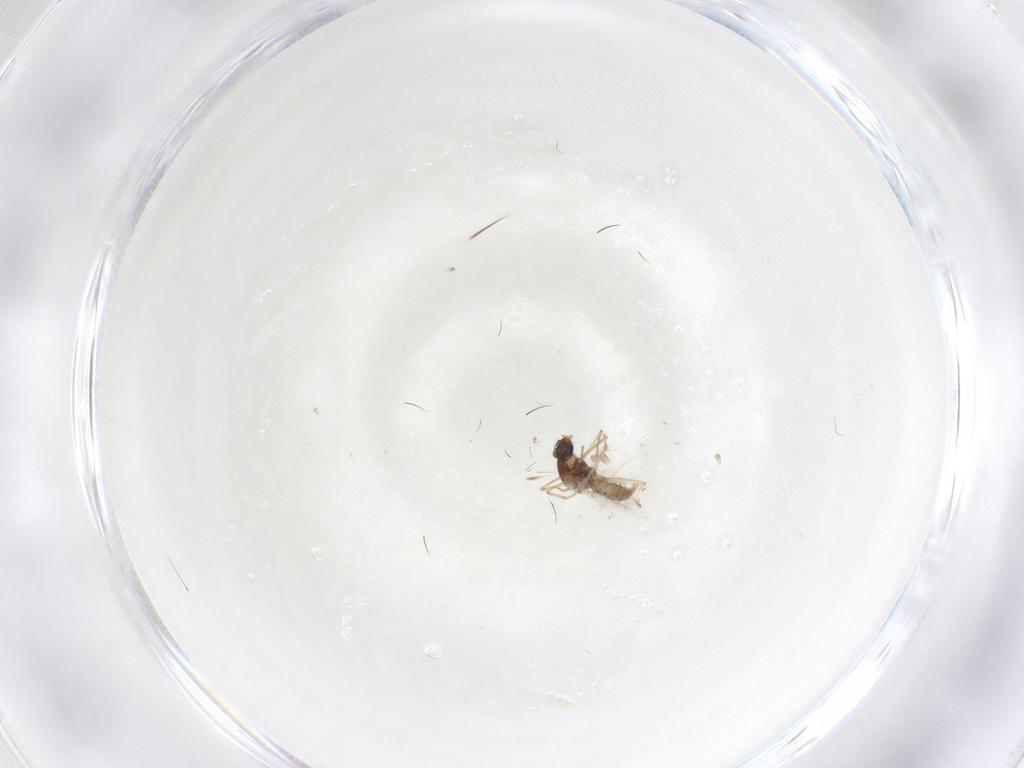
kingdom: Animalia
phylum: Arthropoda
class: Insecta
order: Diptera
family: Cecidomyiidae
